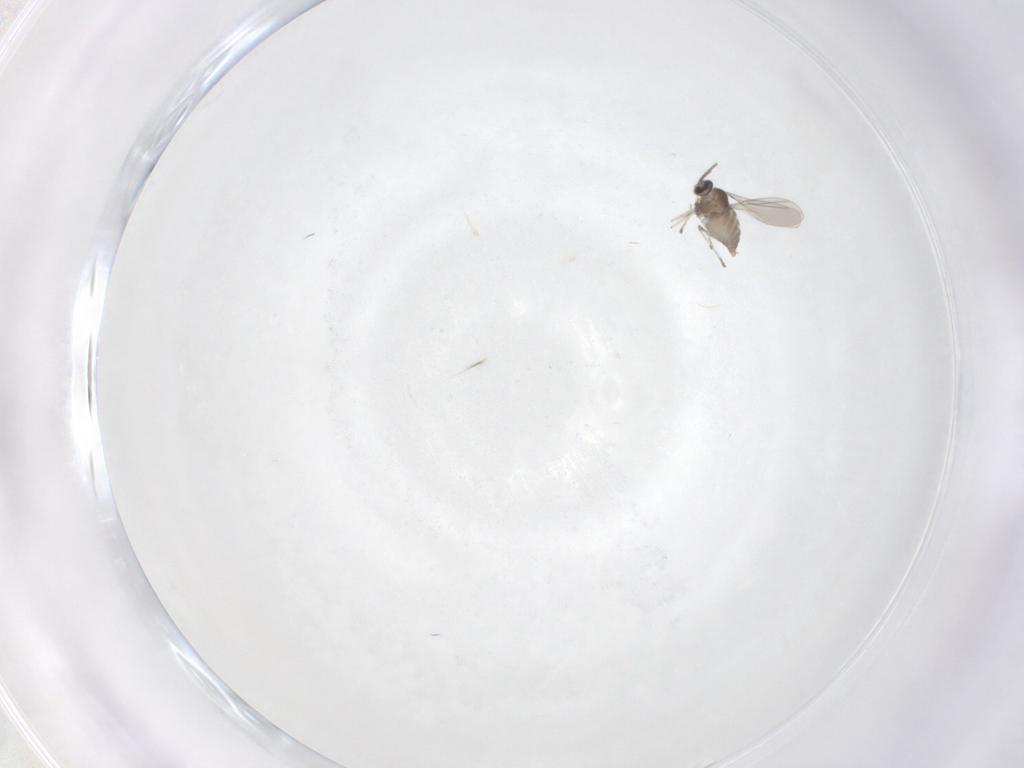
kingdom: Animalia
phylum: Arthropoda
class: Insecta
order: Diptera
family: Cecidomyiidae
